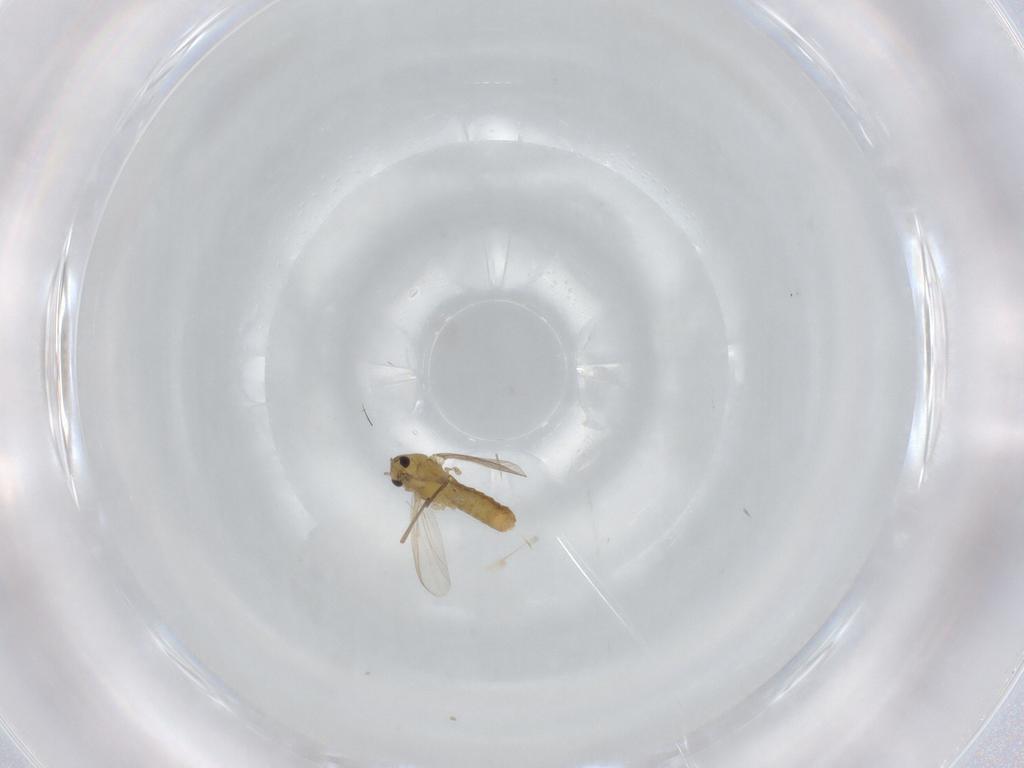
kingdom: Animalia
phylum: Arthropoda
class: Insecta
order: Diptera
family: Chironomidae
